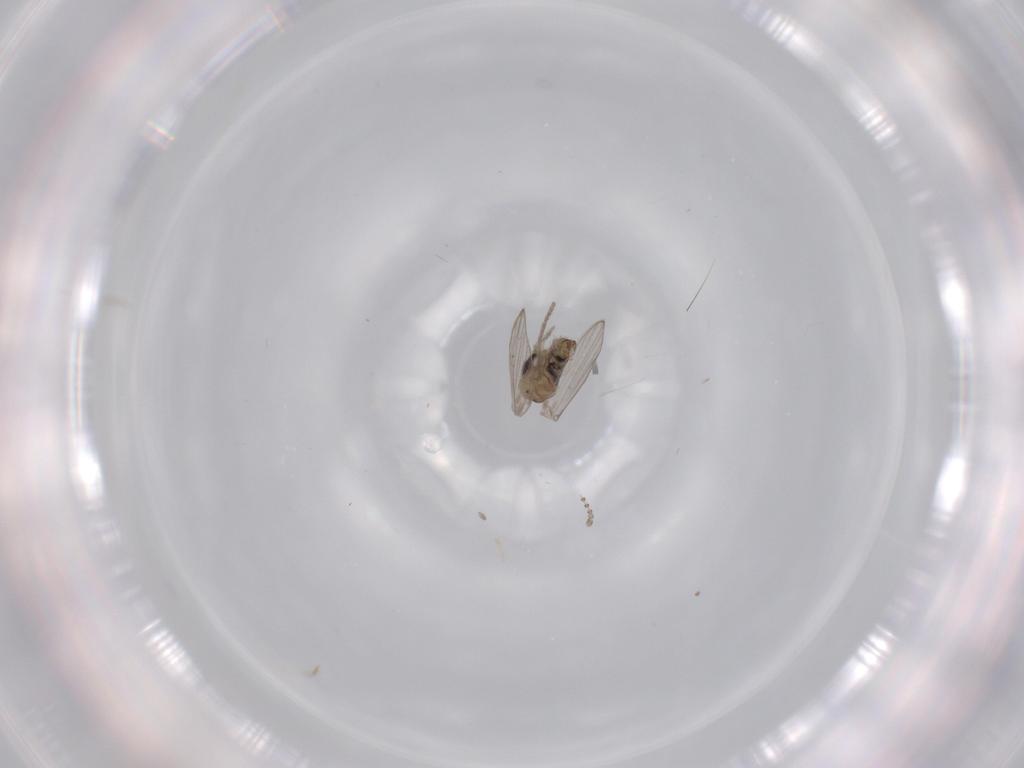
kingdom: Animalia
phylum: Arthropoda
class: Insecta
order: Diptera
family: Psychodidae
